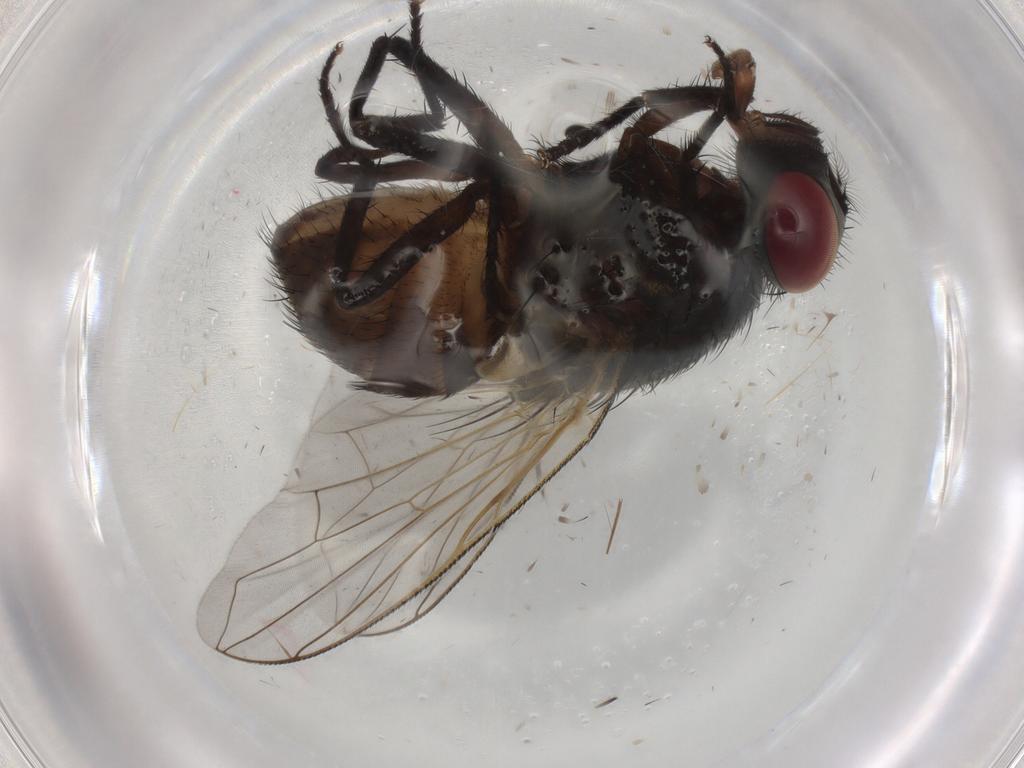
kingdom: Animalia
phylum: Arthropoda
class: Insecta
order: Diptera
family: Muscidae
